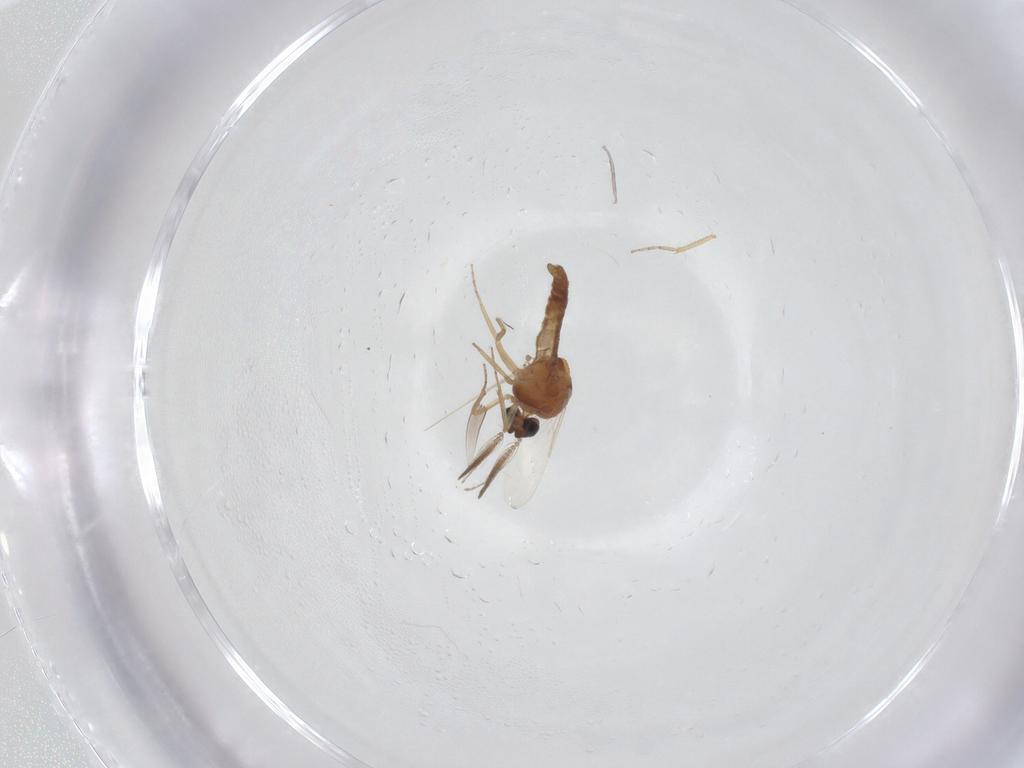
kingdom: Animalia
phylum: Arthropoda
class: Insecta
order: Diptera
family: Ceratopogonidae
